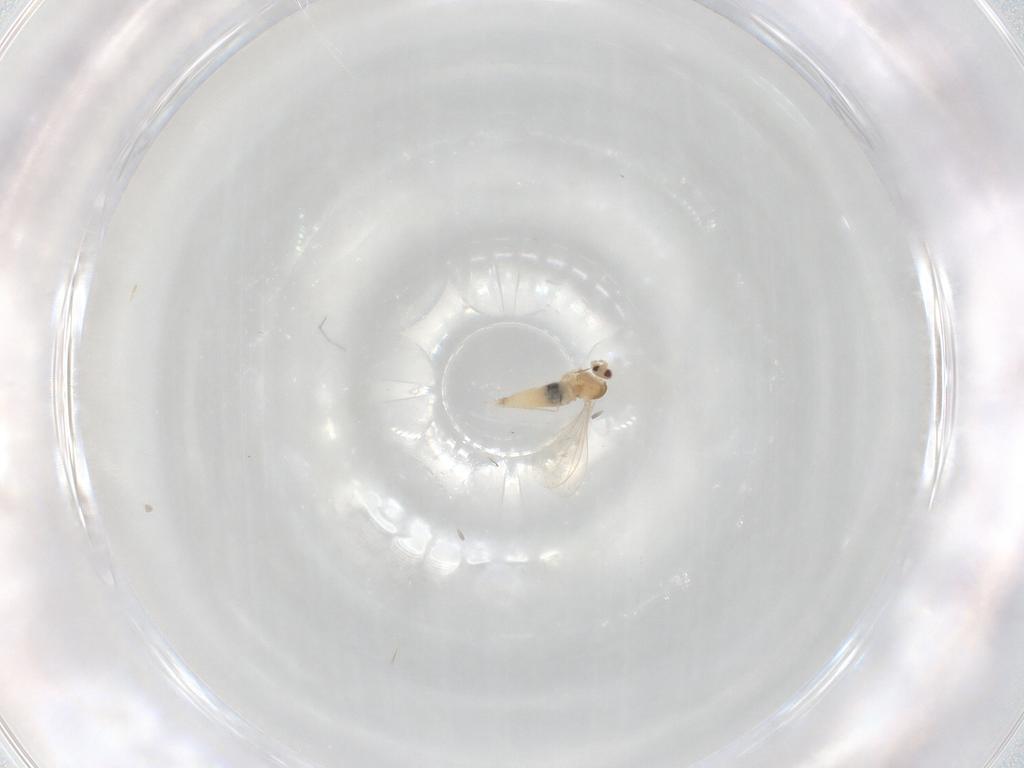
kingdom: Animalia
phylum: Arthropoda
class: Insecta
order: Diptera
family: Cecidomyiidae
